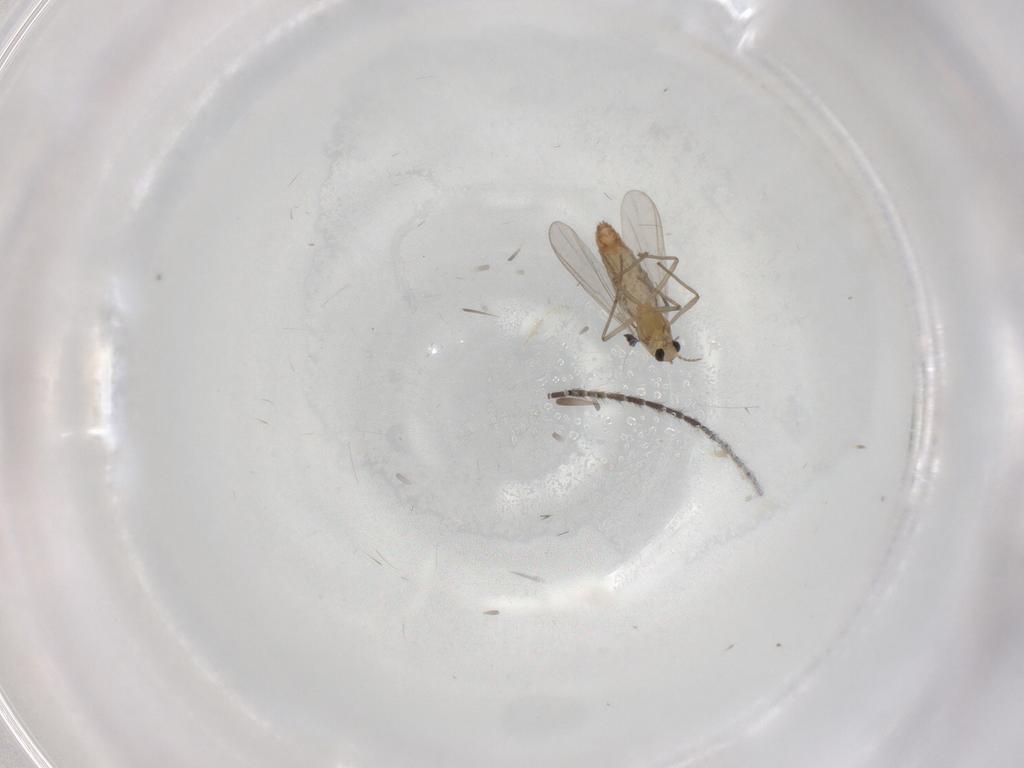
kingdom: Animalia
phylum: Arthropoda
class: Insecta
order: Diptera
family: Chironomidae
